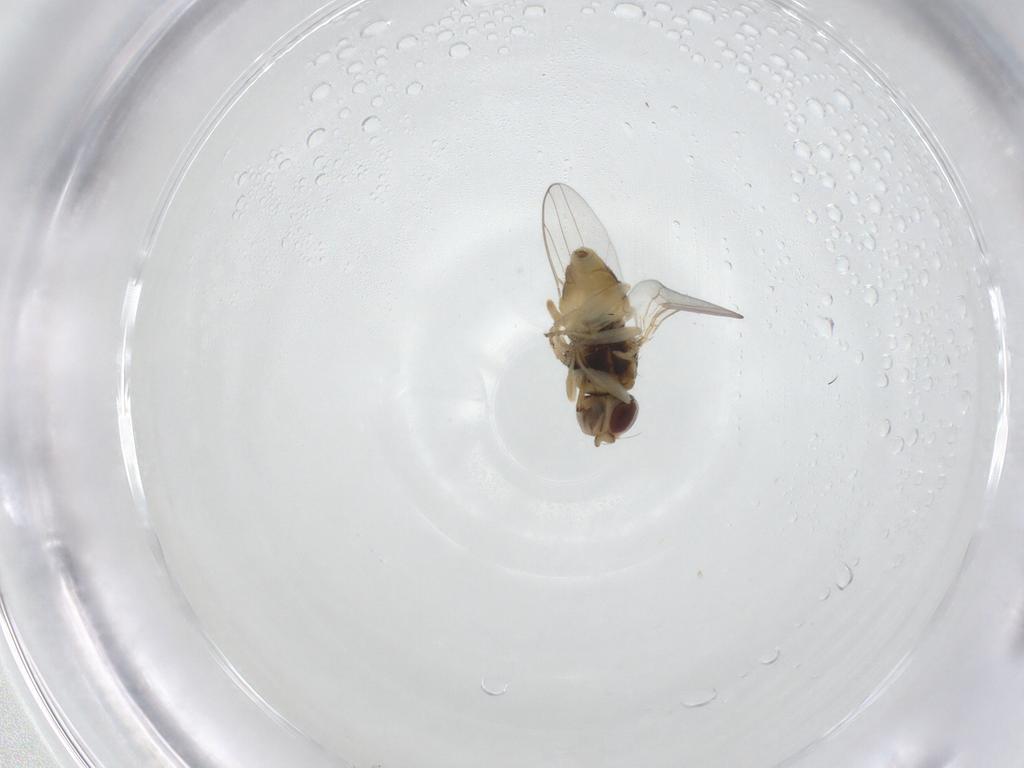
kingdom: Animalia
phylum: Arthropoda
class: Insecta
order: Diptera
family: Chloropidae
